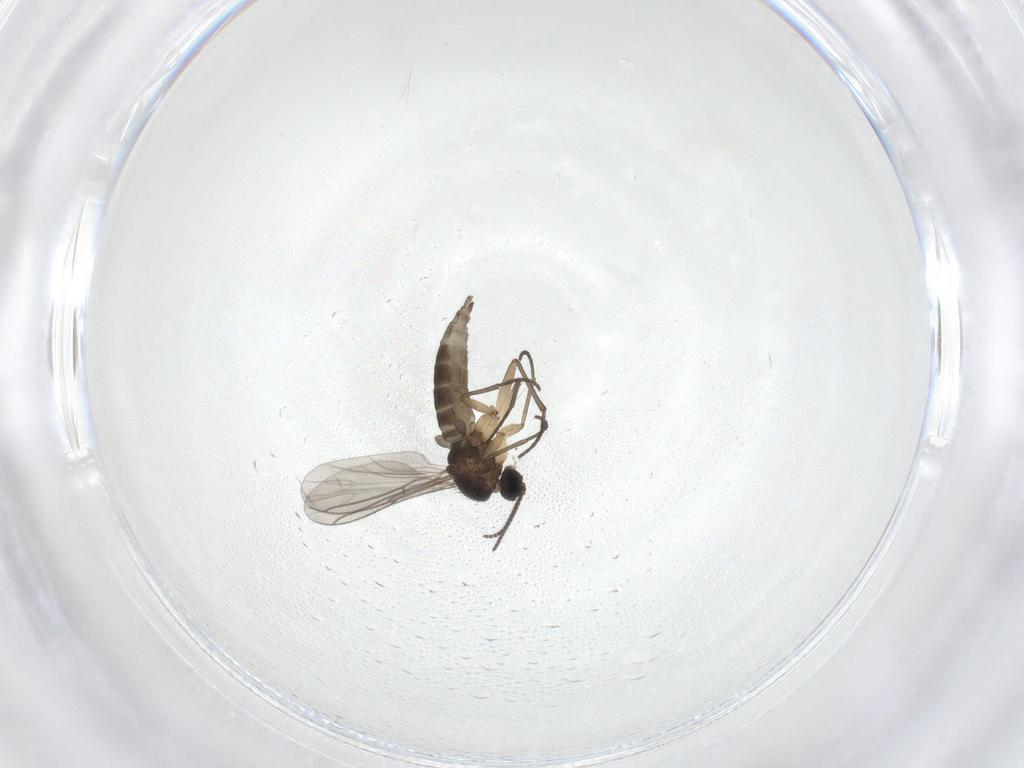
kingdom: Animalia
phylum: Arthropoda
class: Insecta
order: Diptera
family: Sciaridae
